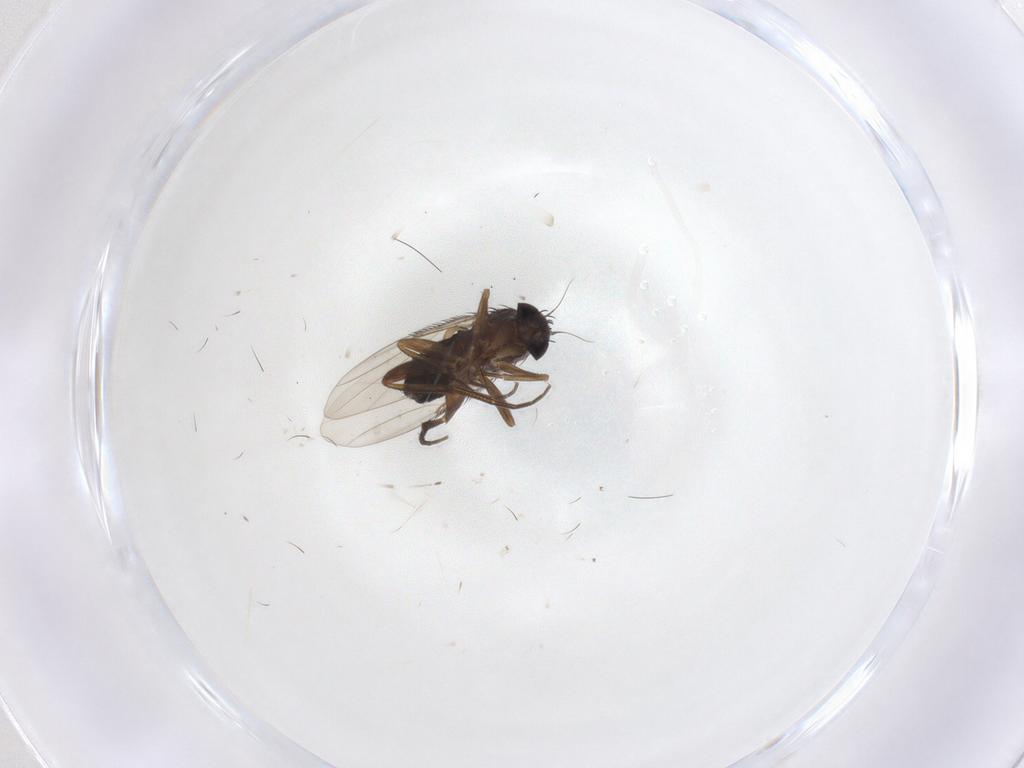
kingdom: Animalia
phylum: Arthropoda
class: Insecta
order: Diptera
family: Phoridae
